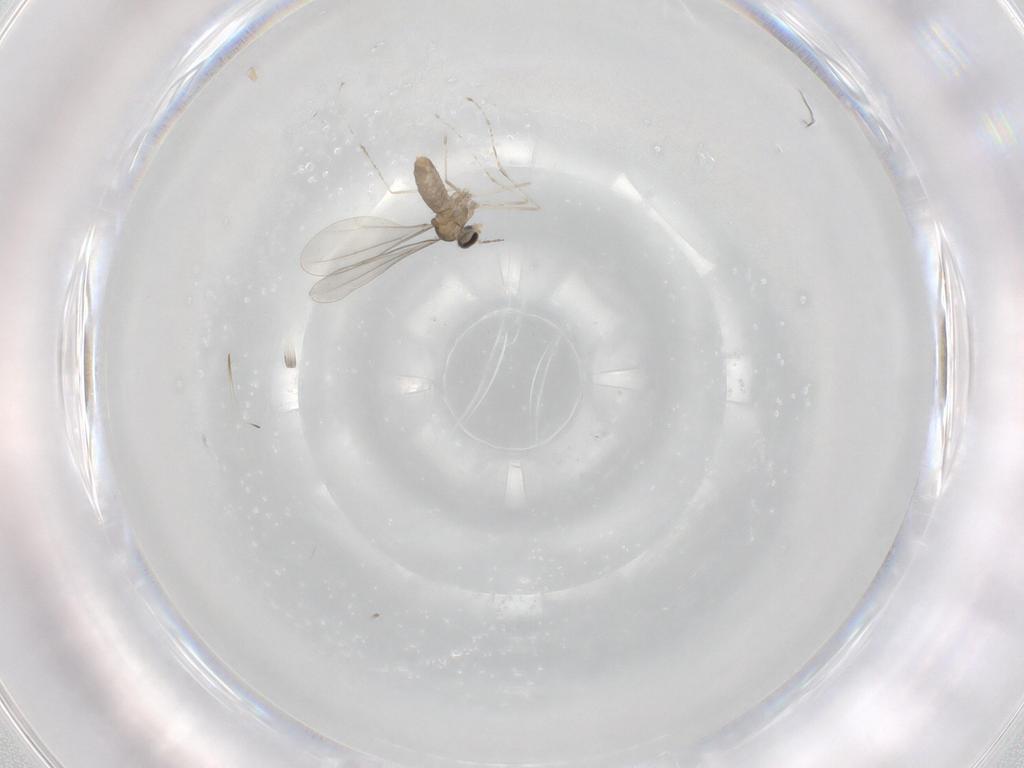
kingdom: Animalia
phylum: Arthropoda
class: Insecta
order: Diptera
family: Cecidomyiidae
